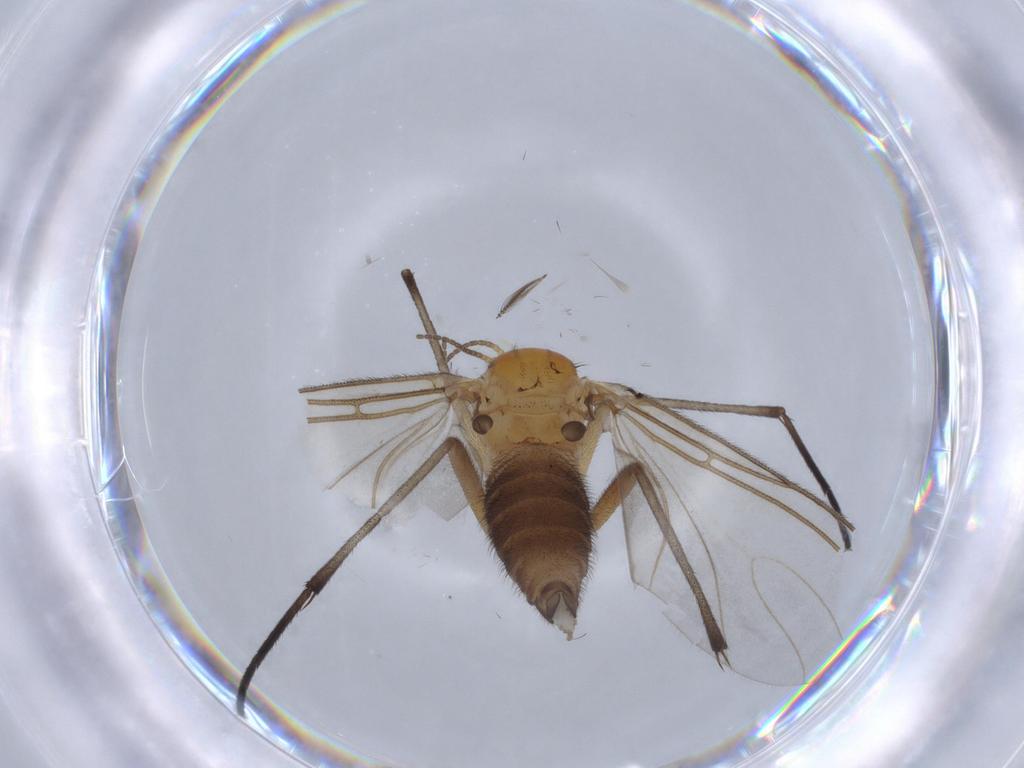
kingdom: Animalia
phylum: Arthropoda
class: Insecta
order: Diptera
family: Sciaridae
